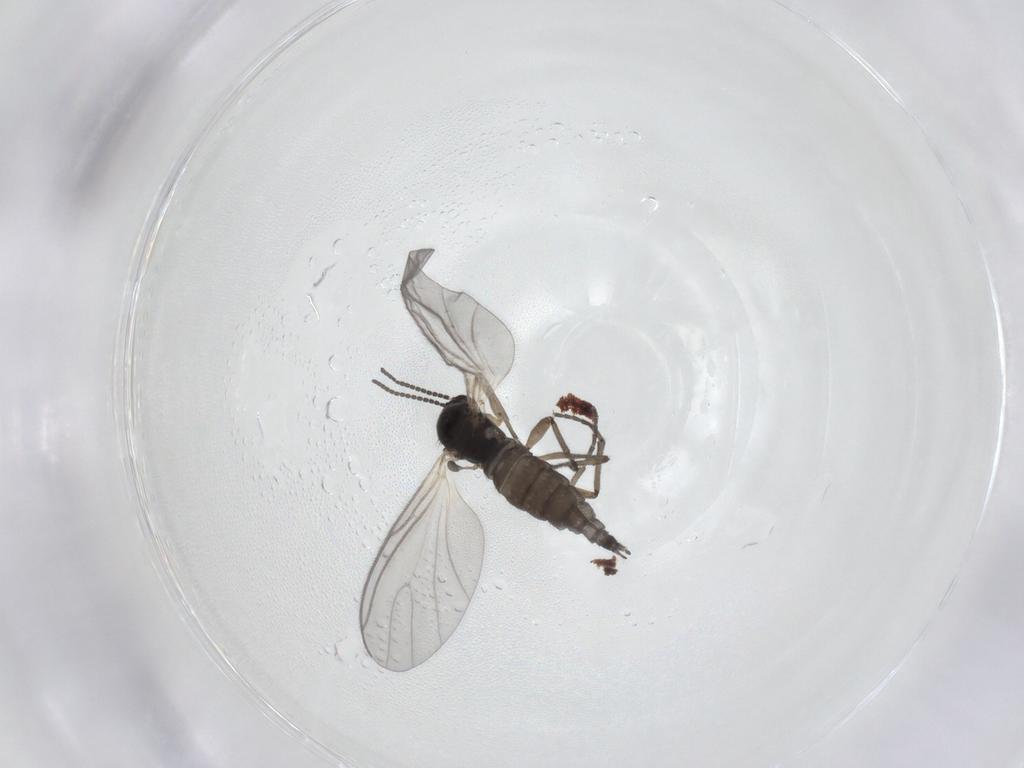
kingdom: Animalia
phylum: Arthropoda
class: Insecta
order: Diptera
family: Sciaridae
